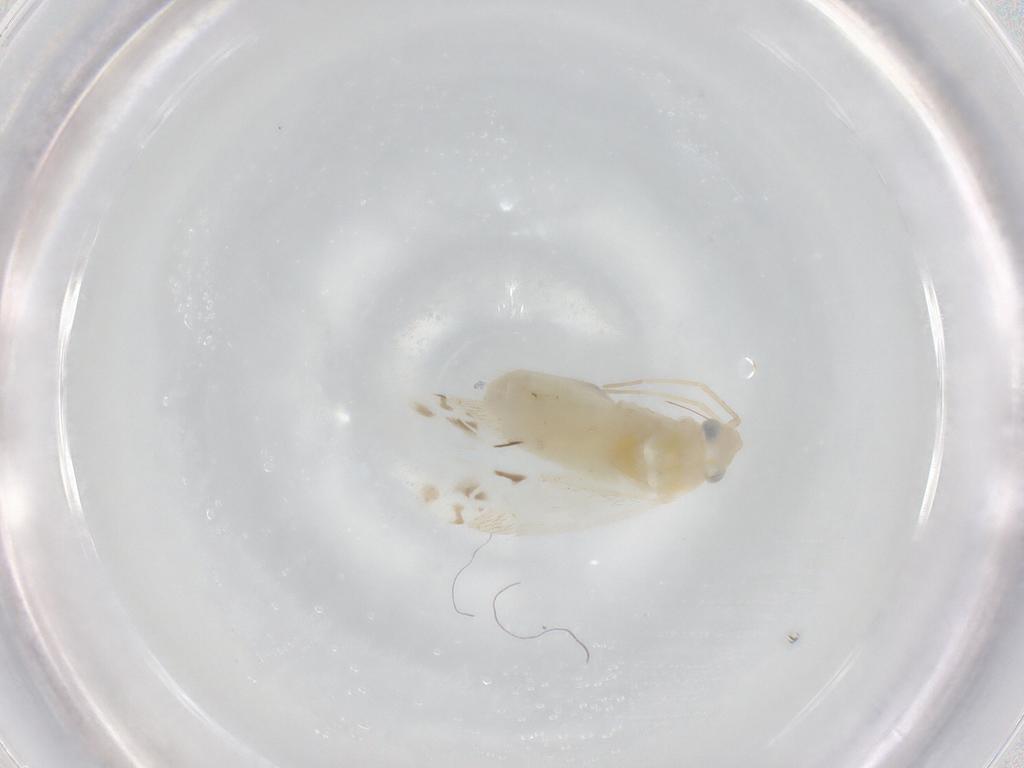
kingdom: Animalia
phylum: Arthropoda
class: Insecta
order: Hemiptera
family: Miridae
